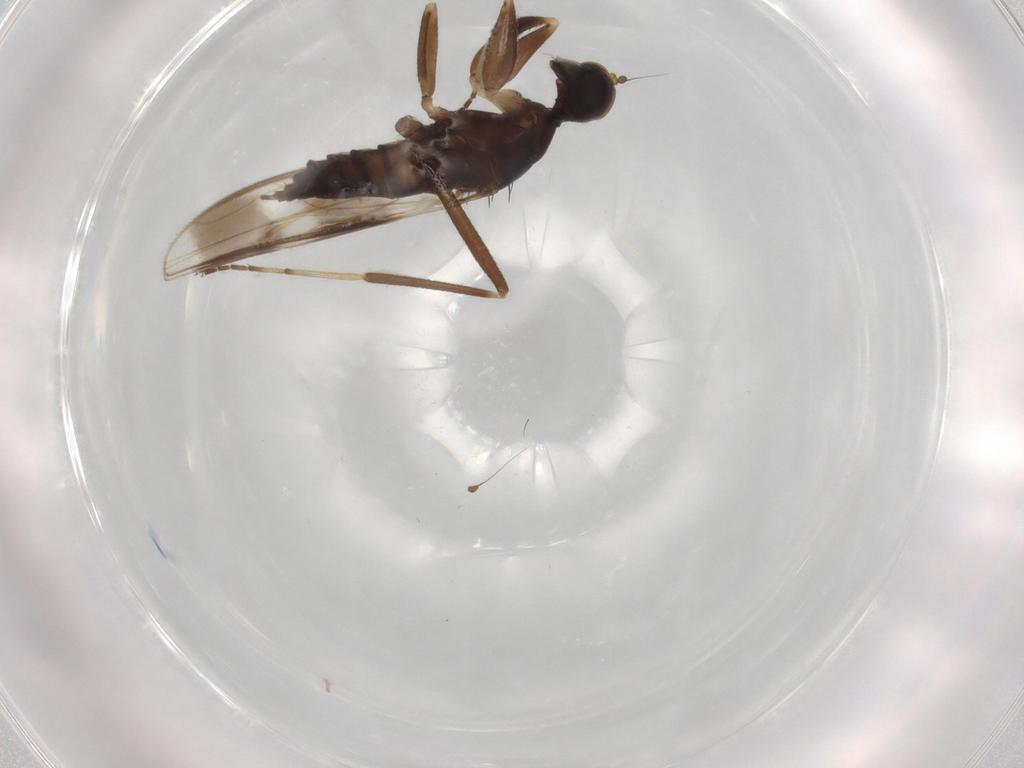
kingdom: Animalia
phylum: Arthropoda
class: Insecta
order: Diptera
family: Hybotidae
